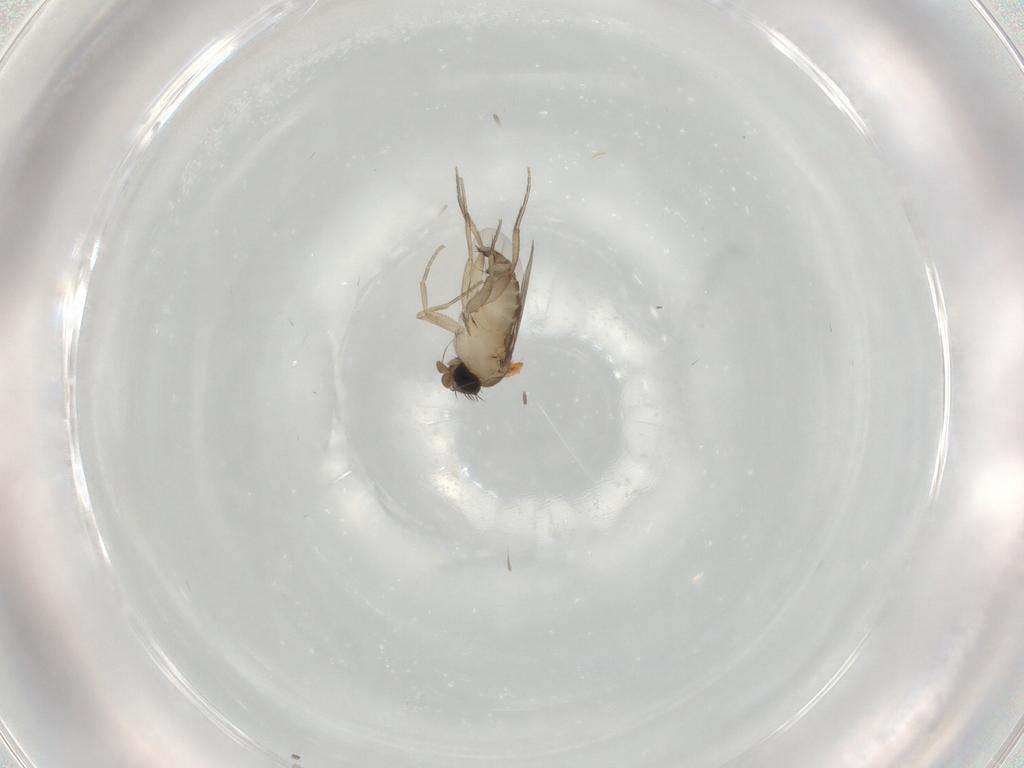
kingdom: Animalia
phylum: Arthropoda
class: Insecta
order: Diptera
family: Phoridae
